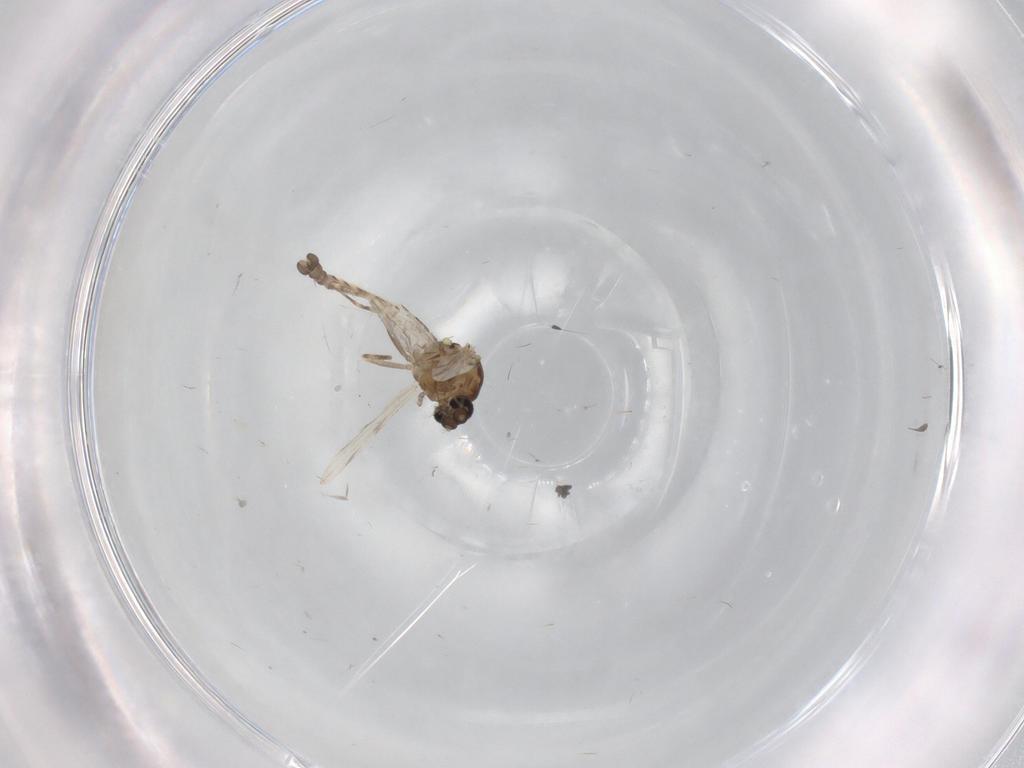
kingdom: Animalia
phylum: Arthropoda
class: Insecta
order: Diptera
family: Ceratopogonidae
